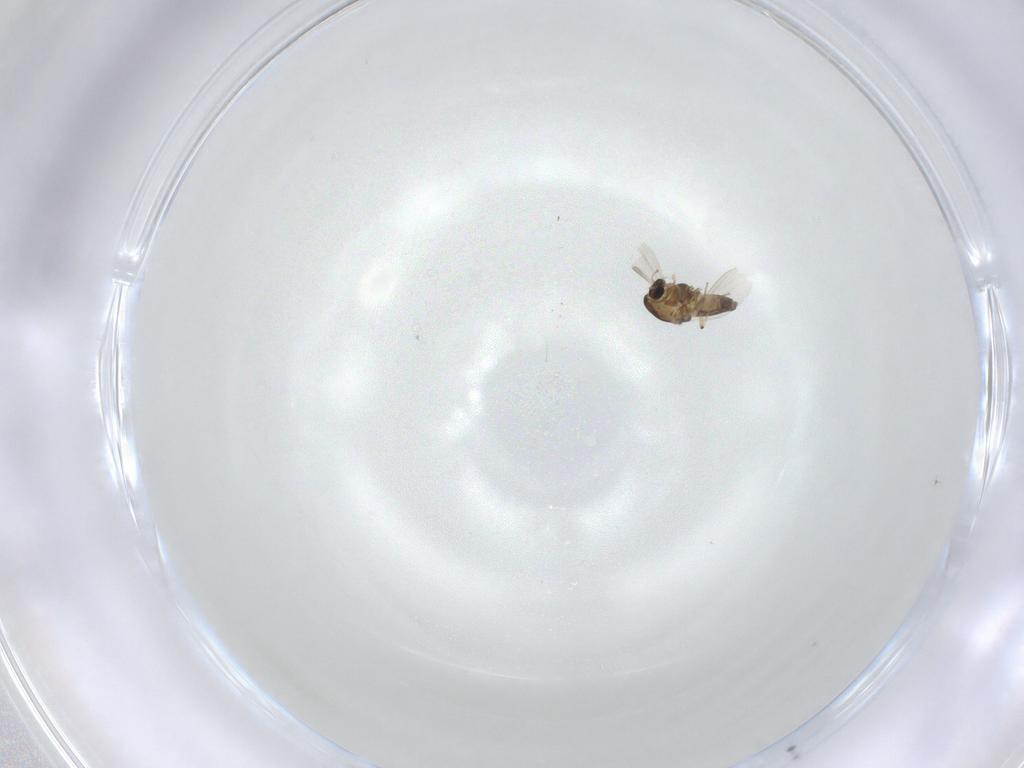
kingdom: Animalia
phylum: Arthropoda
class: Insecta
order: Diptera
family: Chironomidae
